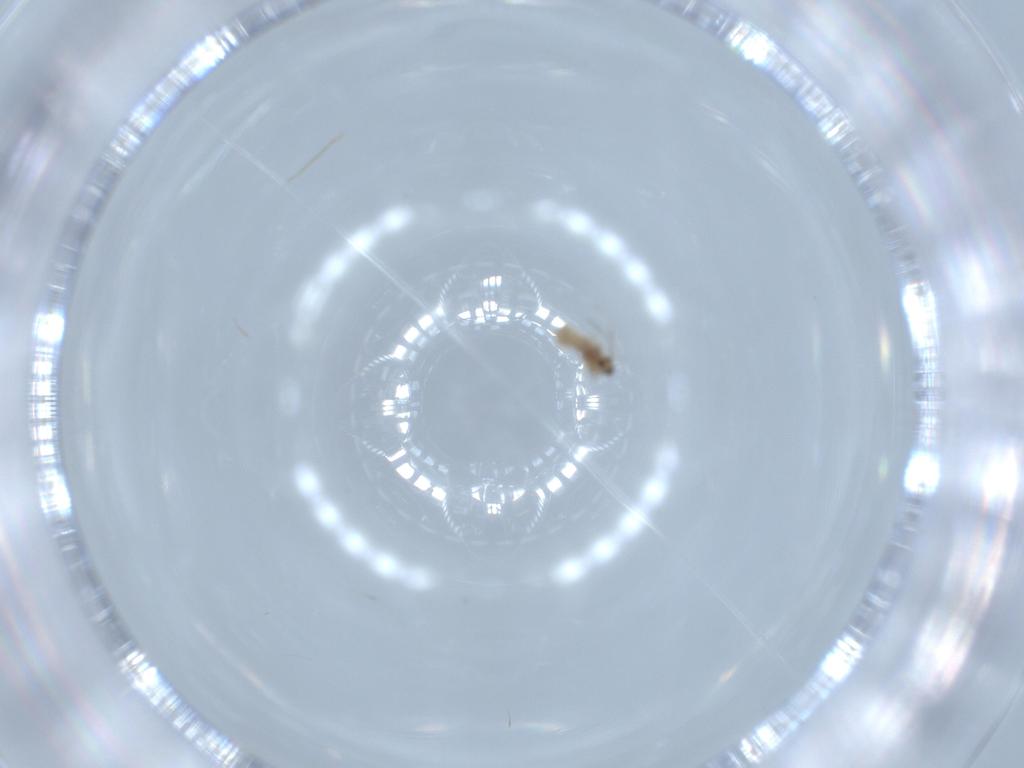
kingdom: Animalia
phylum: Arthropoda
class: Insecta
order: Diptera
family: Cecidomyiidae
